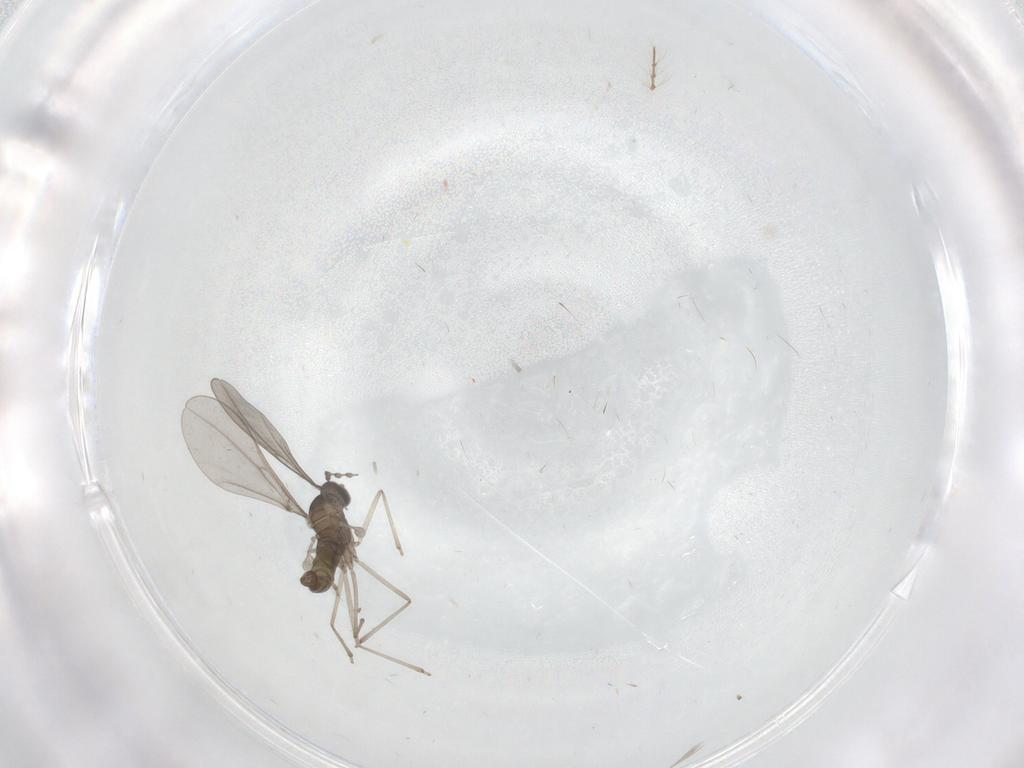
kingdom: Animalia
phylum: Arthropoda
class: Insecta
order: Diptera
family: Cecidomyiidae
